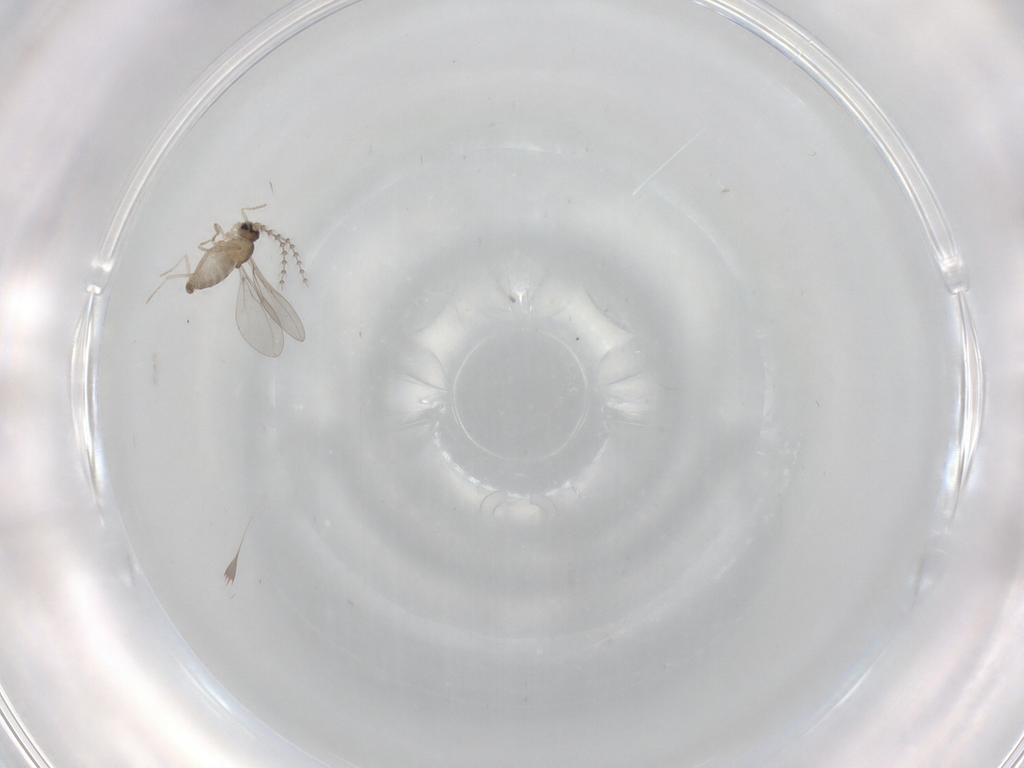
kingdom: Animalia
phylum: Arthropoda
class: Insecta
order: Diptera
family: Cecidomyiidae
